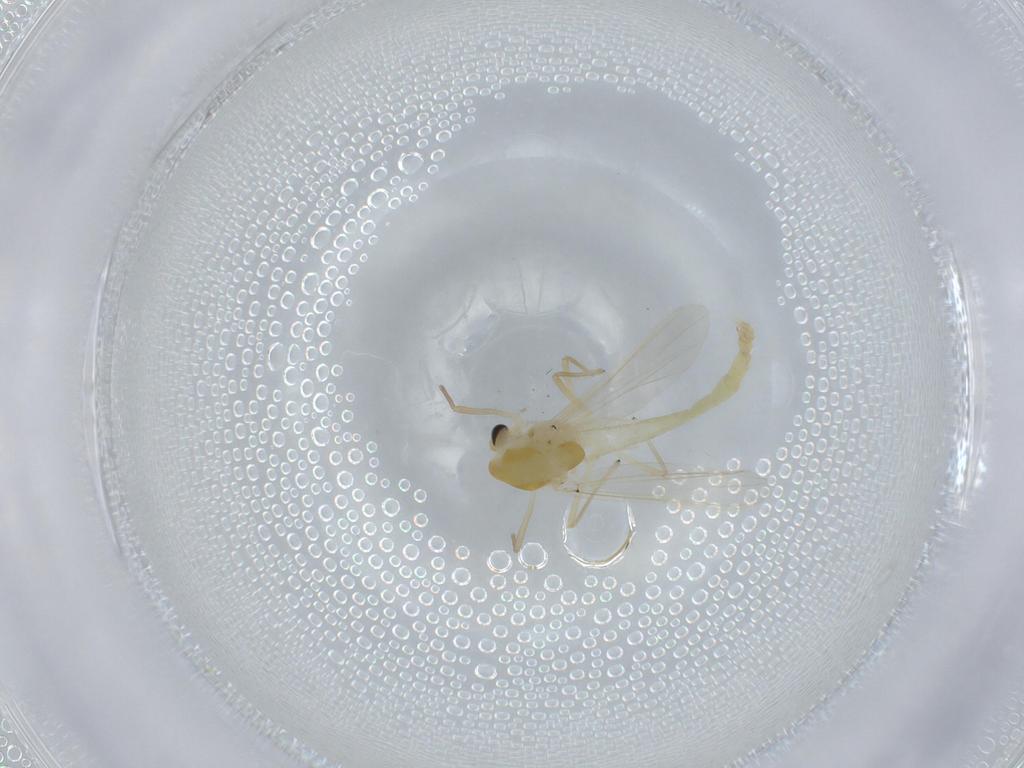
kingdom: Animalia
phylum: Arthropoda
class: Insecta
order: Diptera
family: Chironomidae
